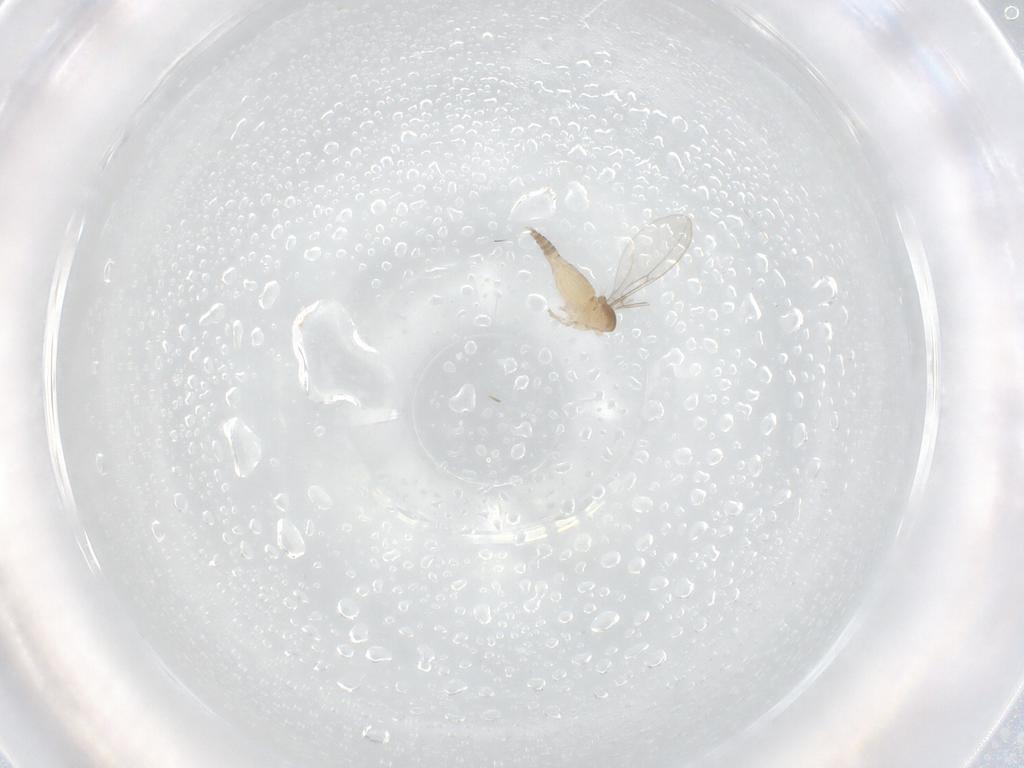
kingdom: Animalia
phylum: Arthropoda
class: Insecta
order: Diptera
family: Cecidomyiidae
